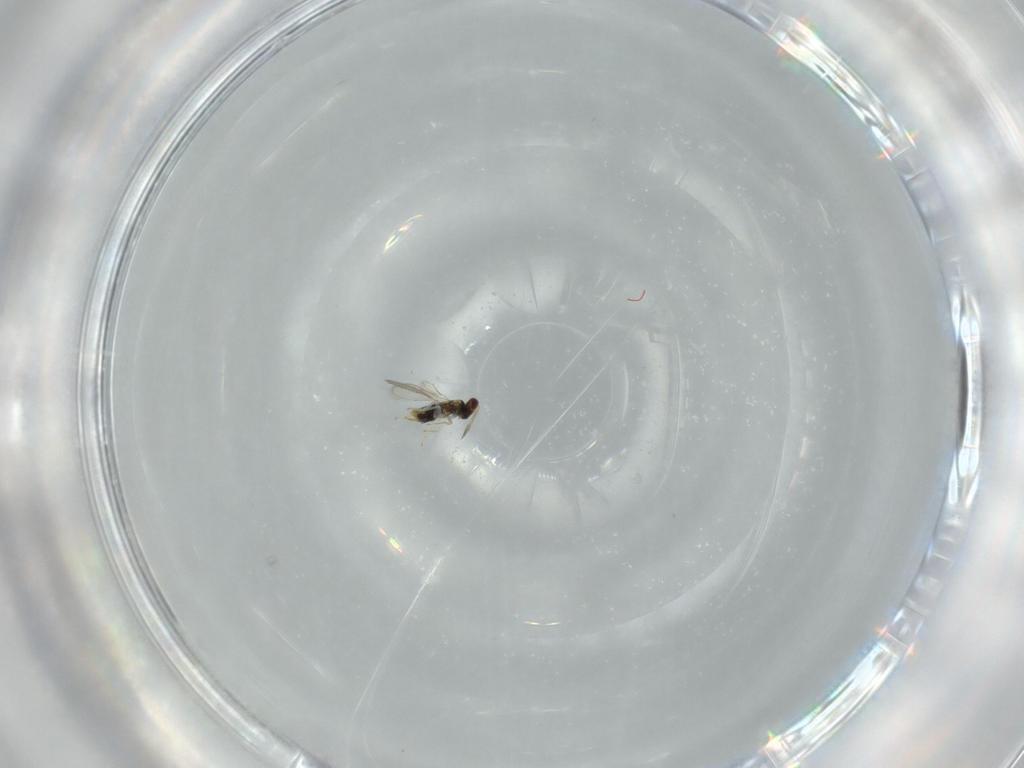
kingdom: Animalia
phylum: Arthropoda
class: Insecta
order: Hymenoptera
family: Aphelinidae
